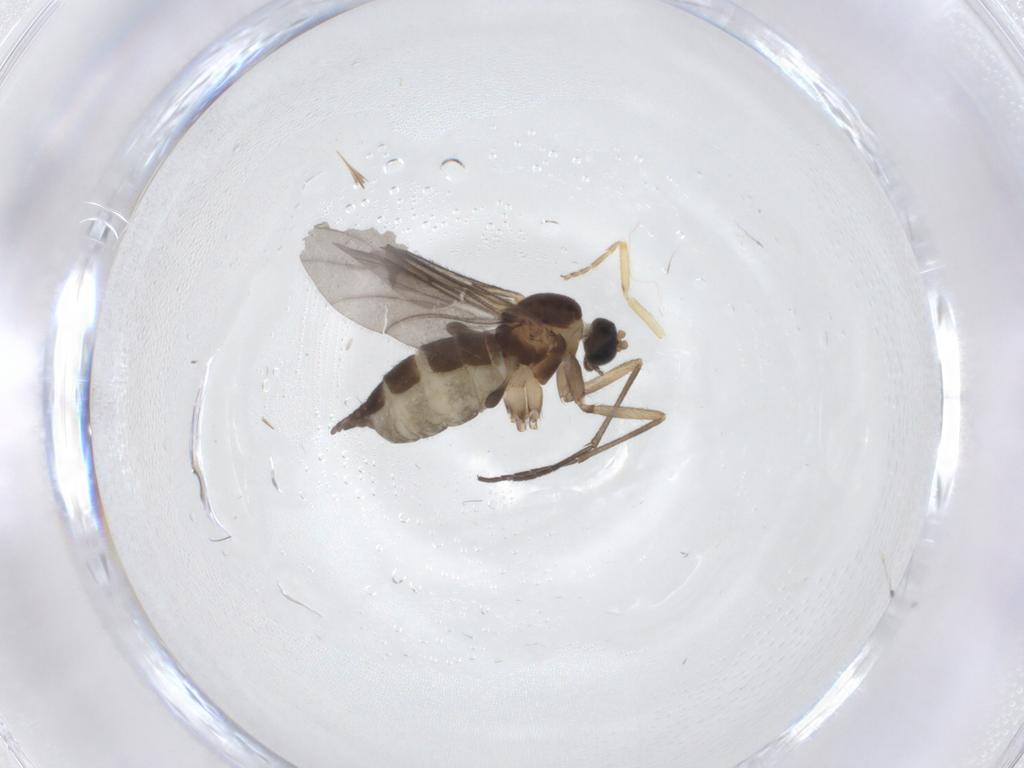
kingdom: Animalia
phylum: Arthropoda
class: Insecta
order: Diptera
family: Sciaridae
